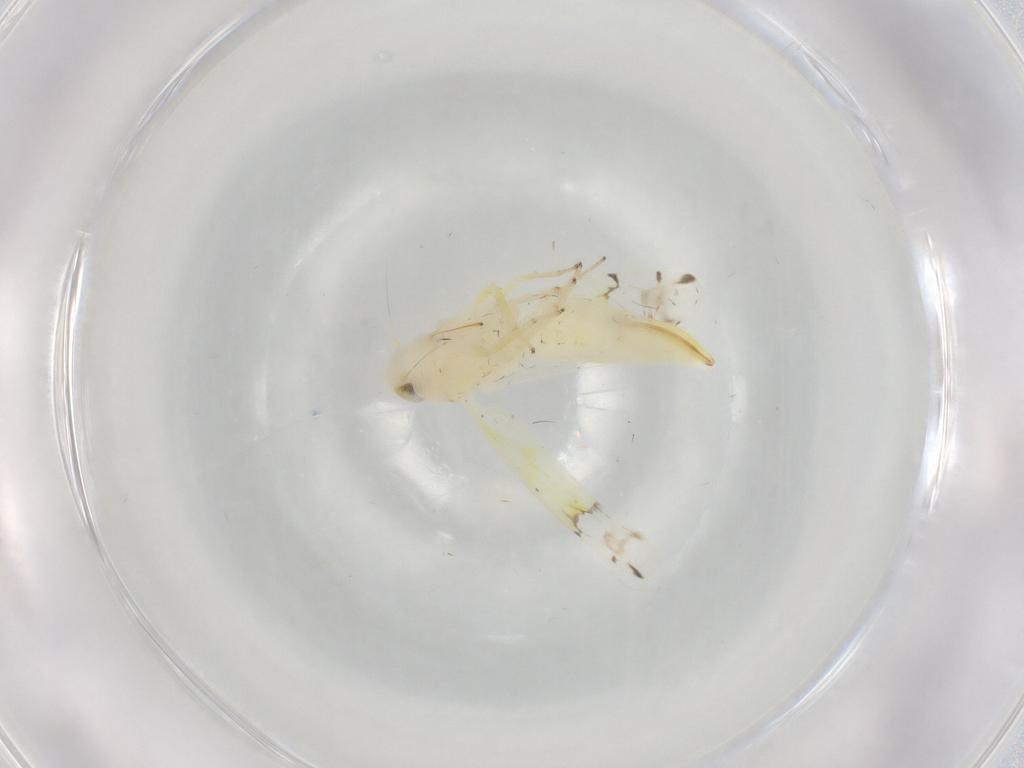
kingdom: Animalia
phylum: Arthropoda
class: Insecta
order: Hemiptera
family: Cicadellidae
